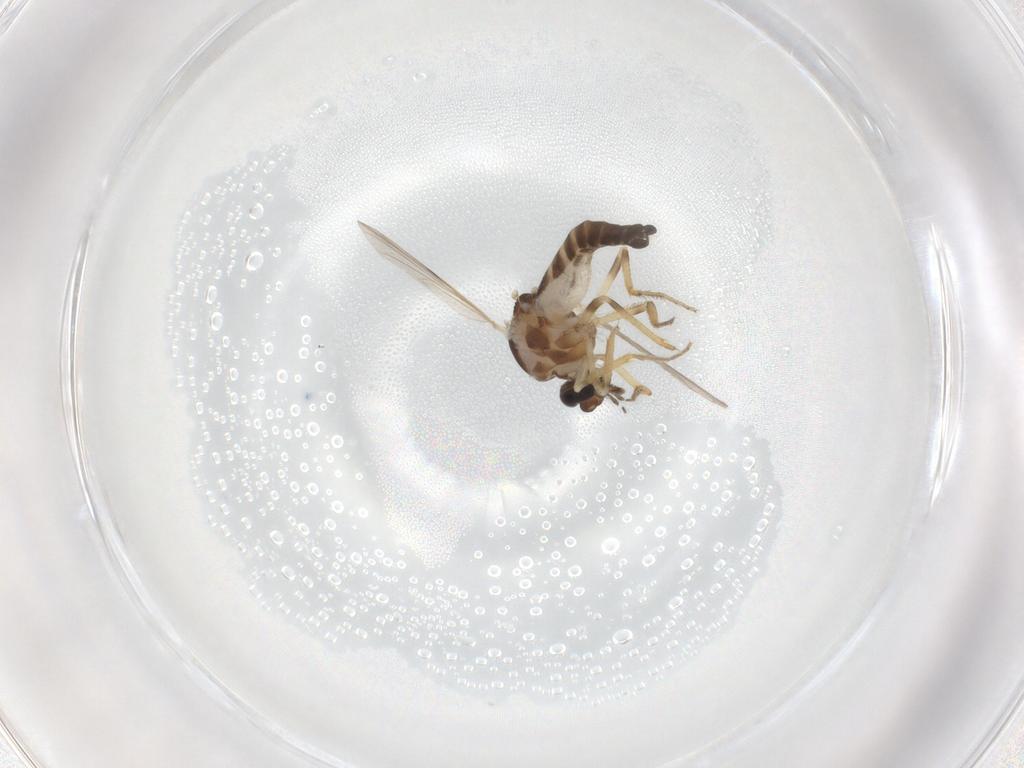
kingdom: Animalia
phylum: Arthropoda
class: Insecta
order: Diptera
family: Ceratopogonidae
